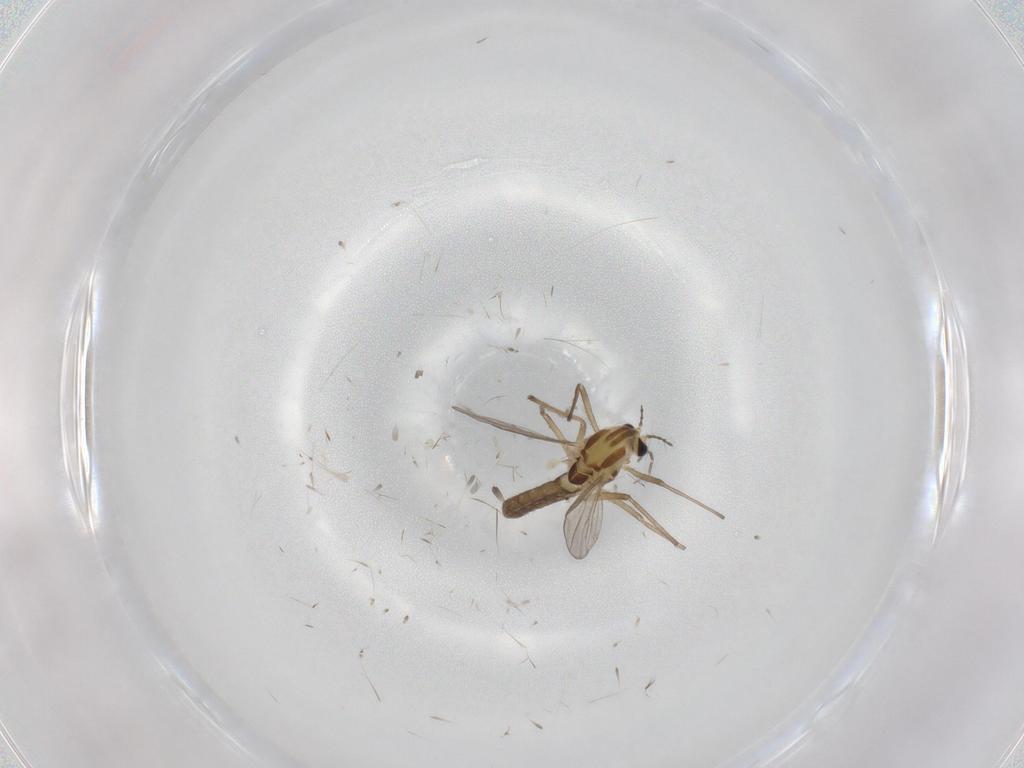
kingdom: Animalia
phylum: Arthropoda
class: Insecta
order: Diptera
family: Chironomidae
